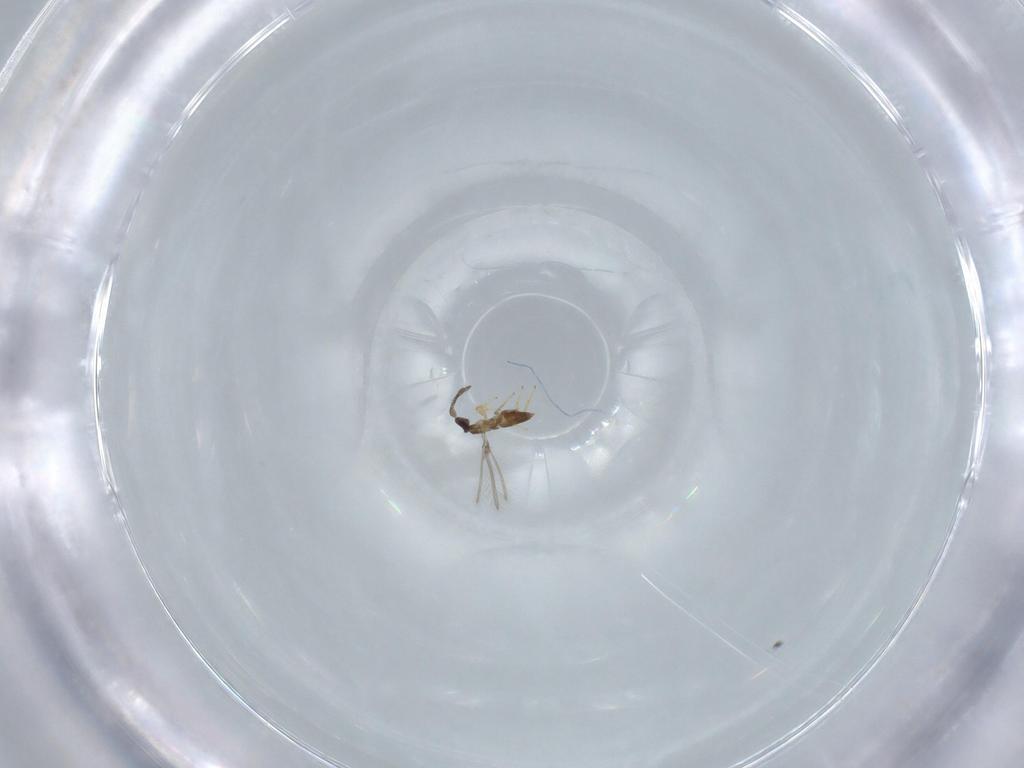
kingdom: Animalia
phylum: Arthropoda
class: Insecta
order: Hymenoptera
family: Mymaridae
